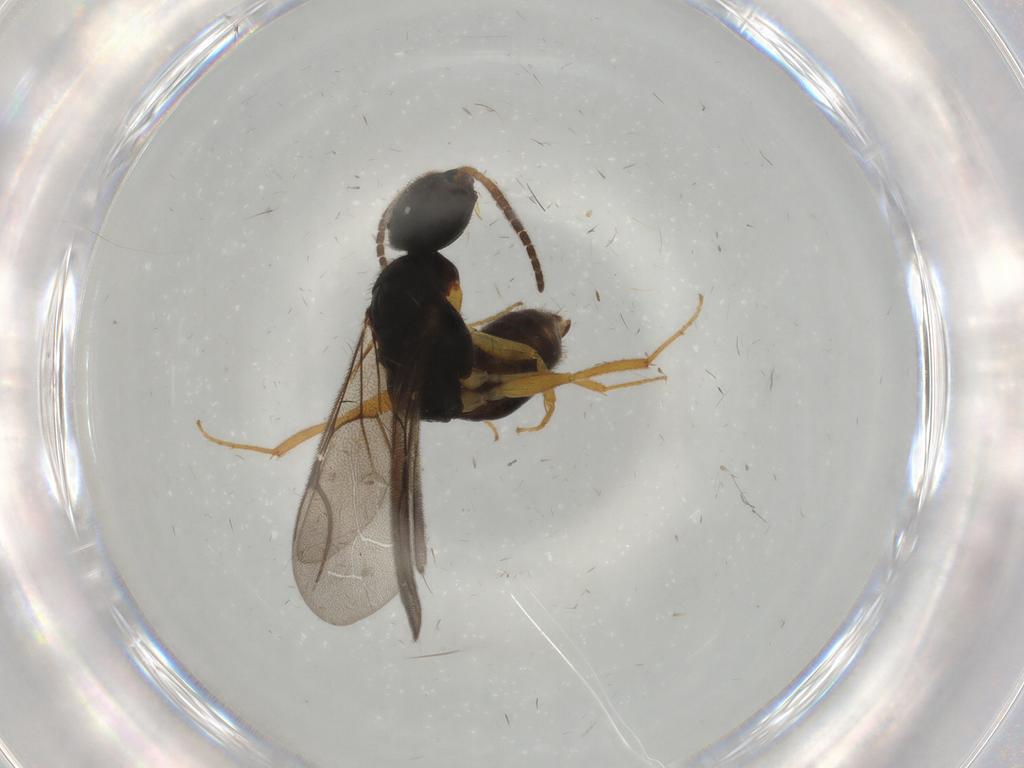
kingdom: Animalia
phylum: Arthropoda
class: Insecta
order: Hymenoptera
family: Bethylidae
